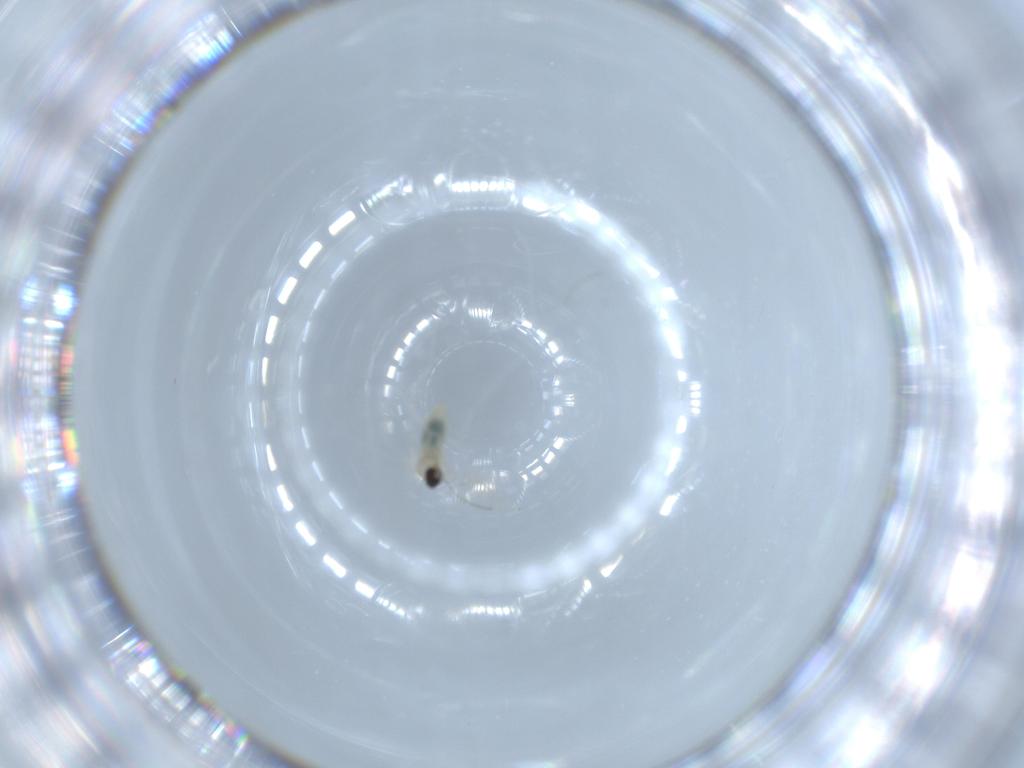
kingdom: Animalia
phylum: Arthropoda
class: Insecta
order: Diptera
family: Cecidomyiidae
